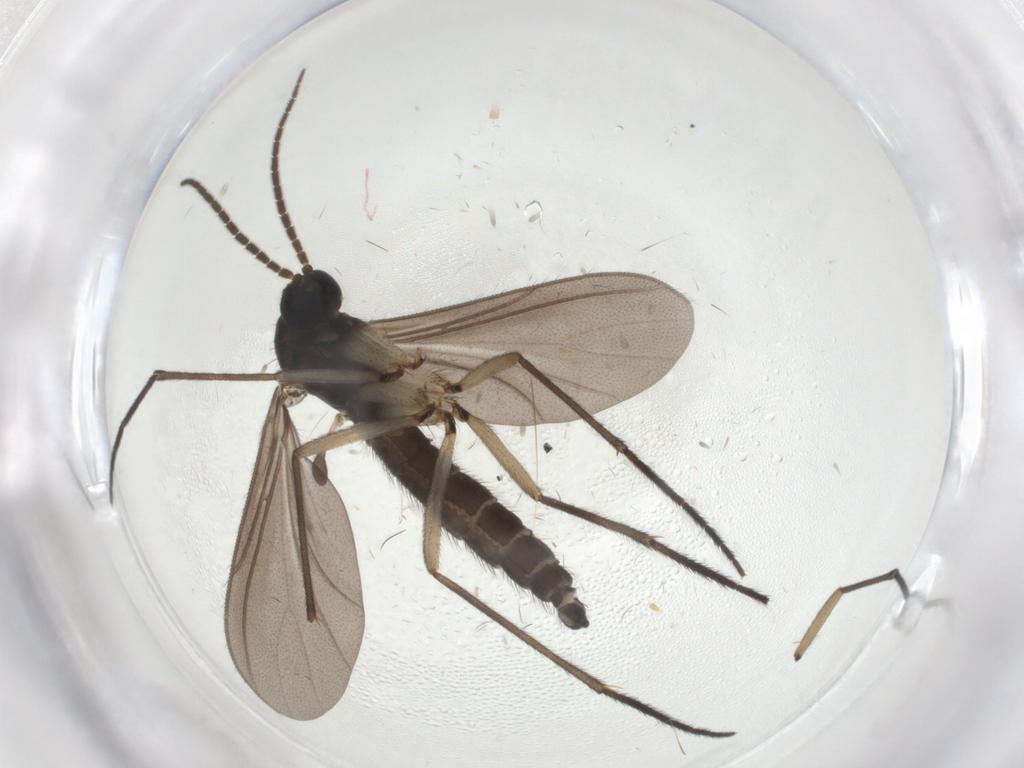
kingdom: Animalia
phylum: Arthropoda
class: Insecta
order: Diptera
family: Sciaridae
